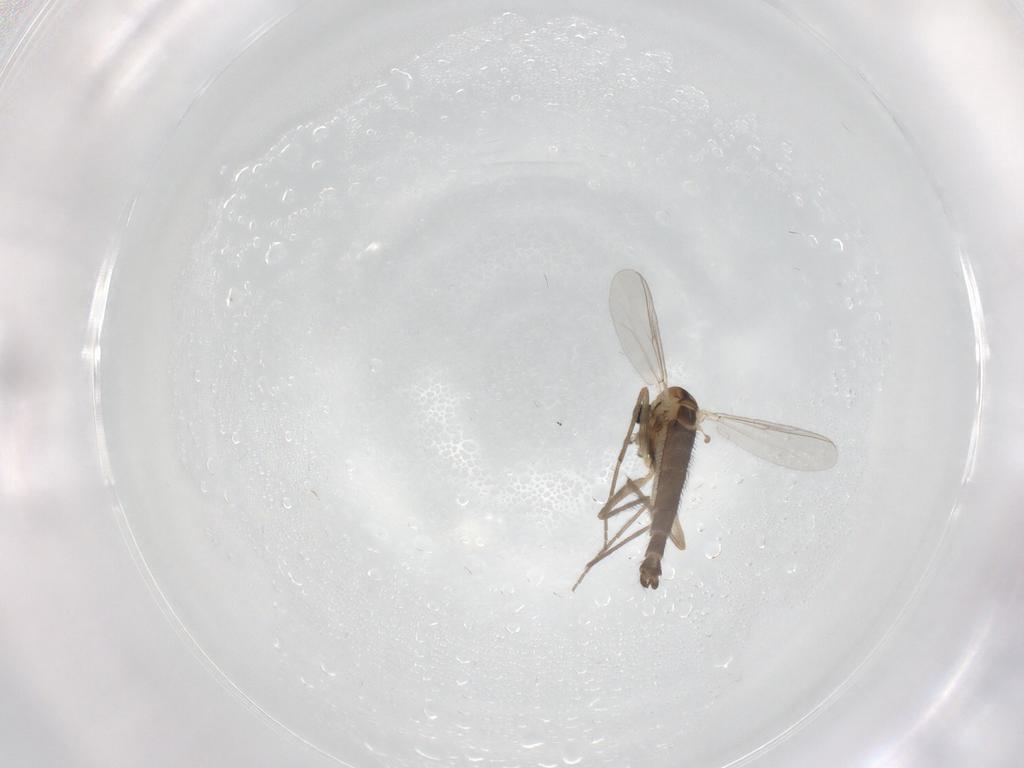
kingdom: Animalia
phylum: Arthropoda
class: Insecta
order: Diptera
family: Chironomidae
